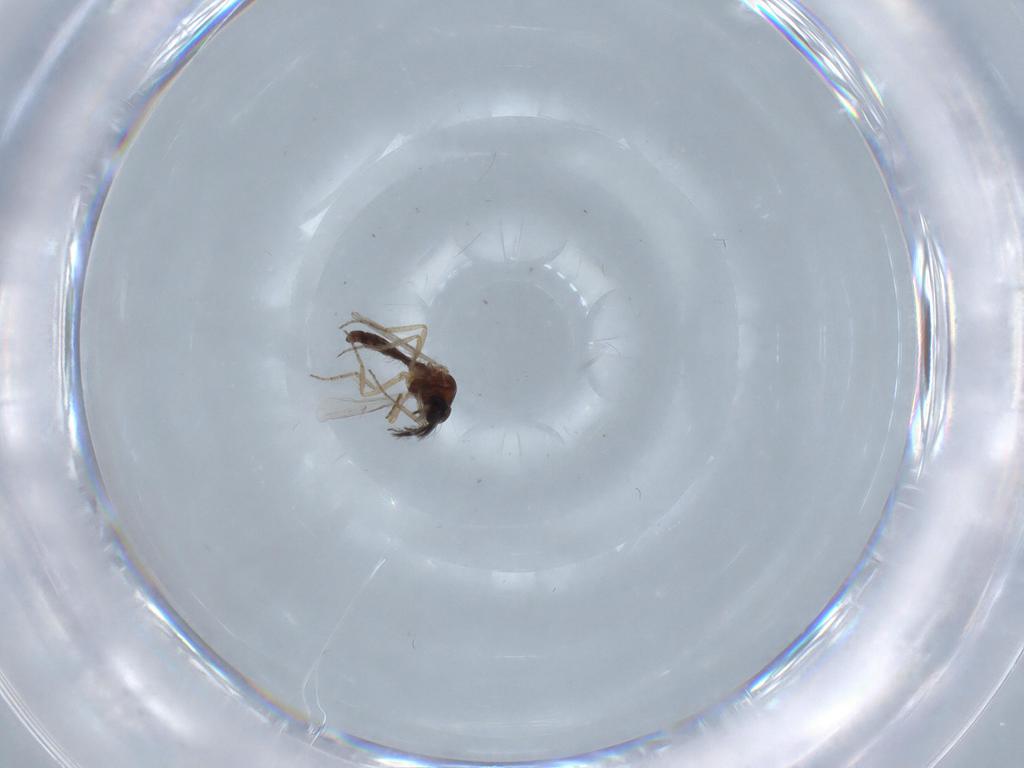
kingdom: Animalia
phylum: Arthropoda
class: Insecta
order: Diptera
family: Ceratopogonidae
